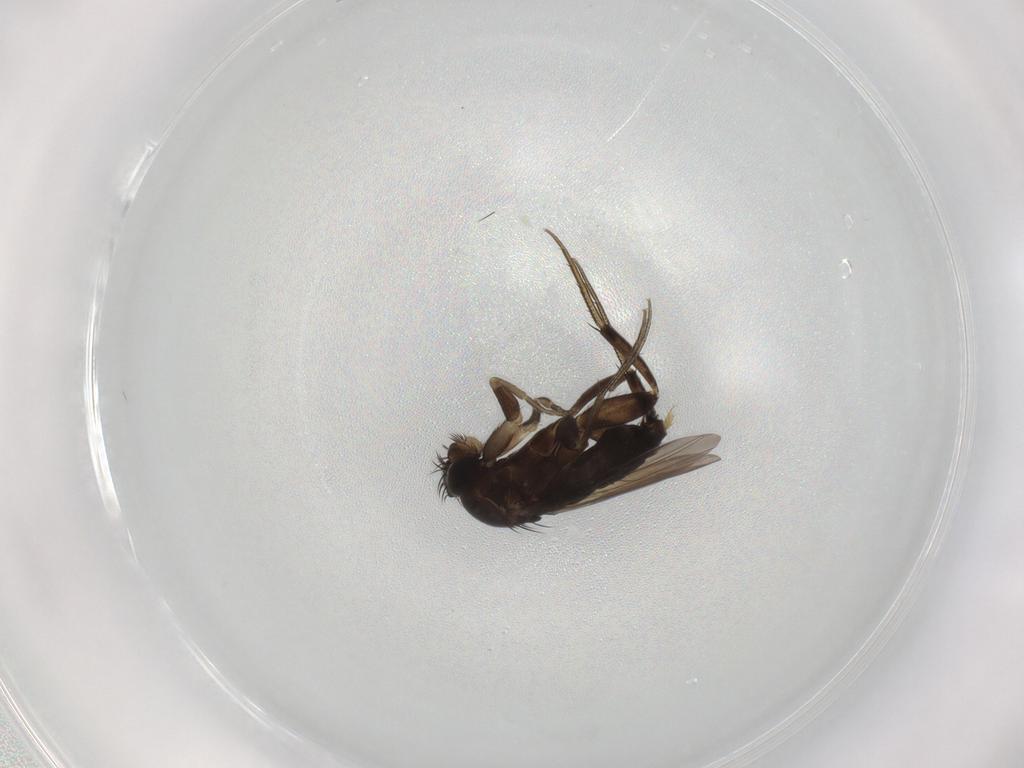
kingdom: Animalia
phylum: Arthropoda
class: Insecta
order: Diptera
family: Phoridae
